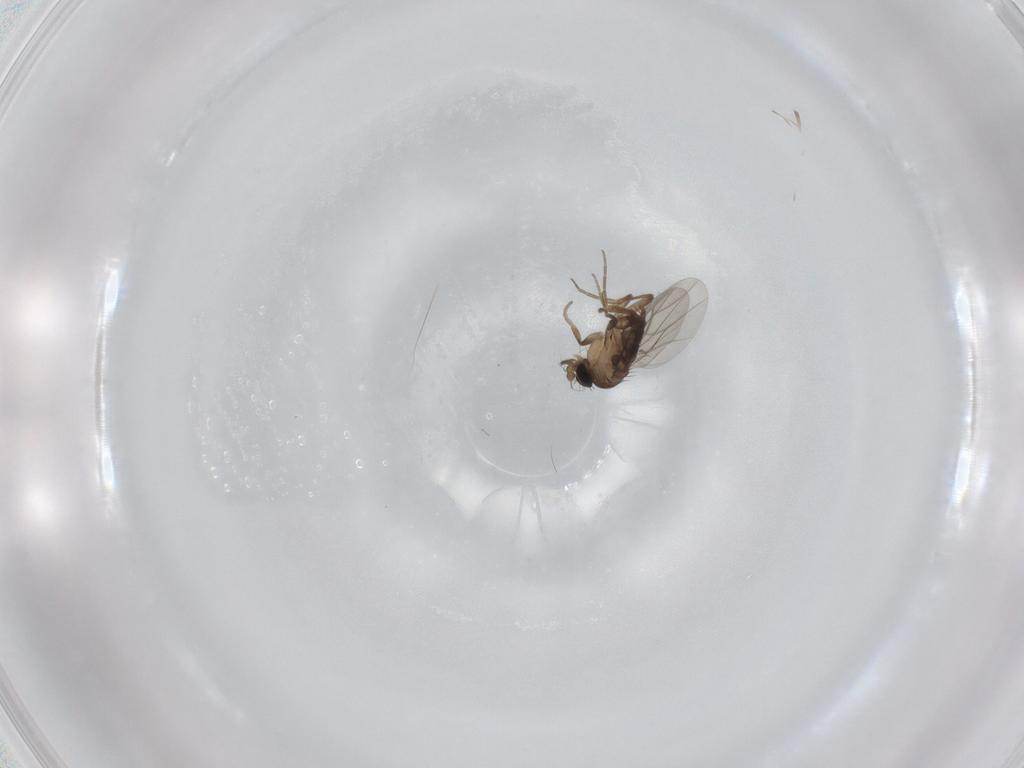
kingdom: Animalia
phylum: Arthropoda
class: Insecta
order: Diptera
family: Phoridae
